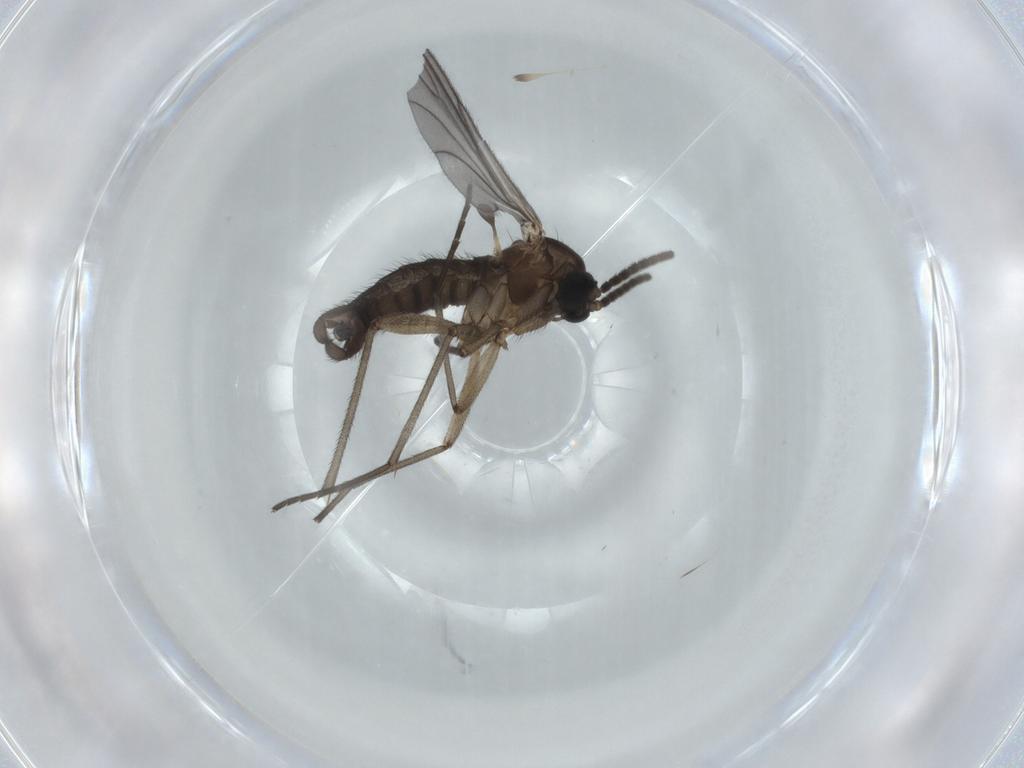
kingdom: Animalia
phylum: Arthropoda
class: Insecta
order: Diptera
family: Sciaridae
